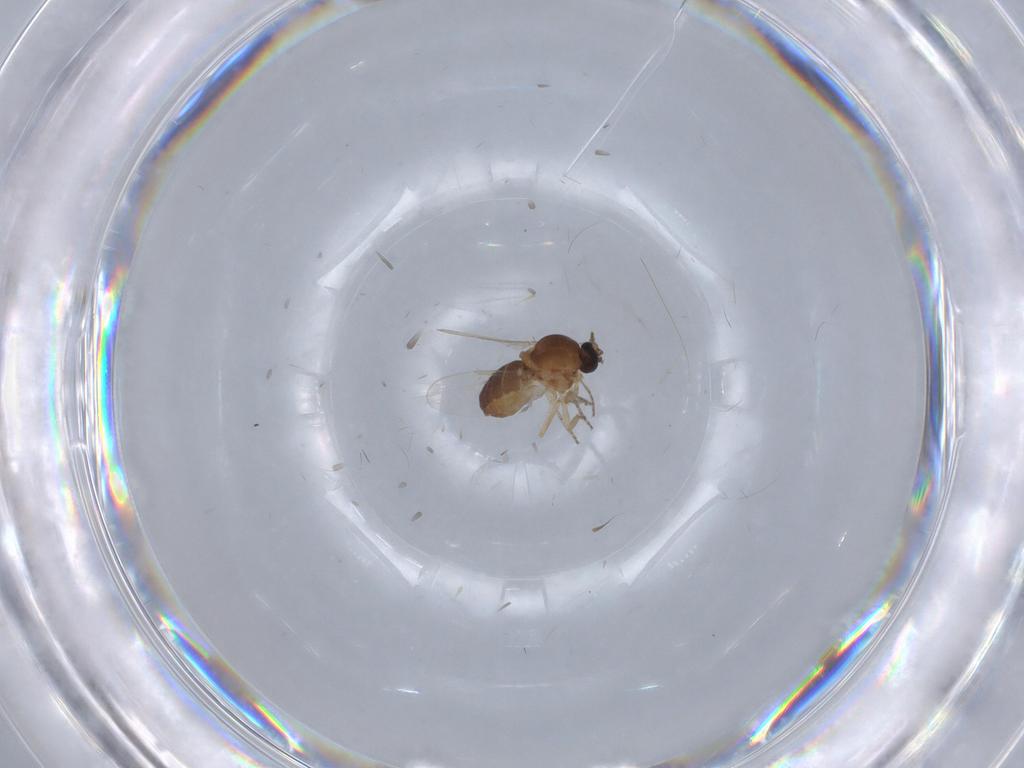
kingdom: Animalia
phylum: Arthropoda
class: Insecta
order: Diptera
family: Ceratopogonidae
